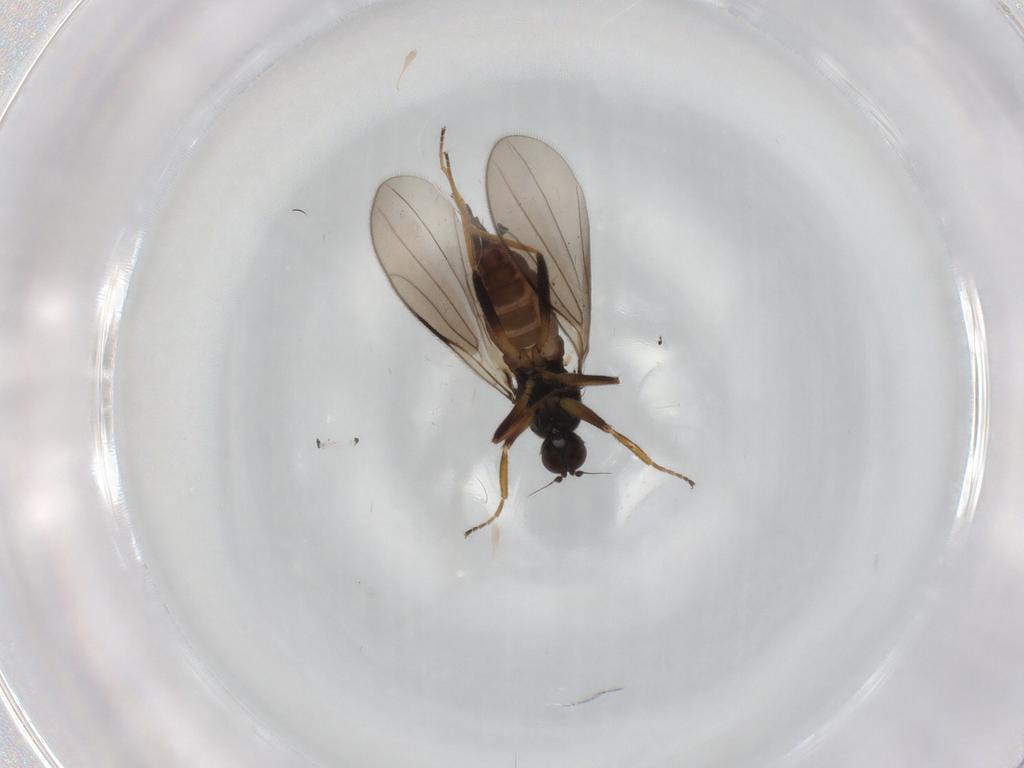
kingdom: Animalia
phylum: Arthropoda
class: Insecta
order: Diptera
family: Hybotidae
